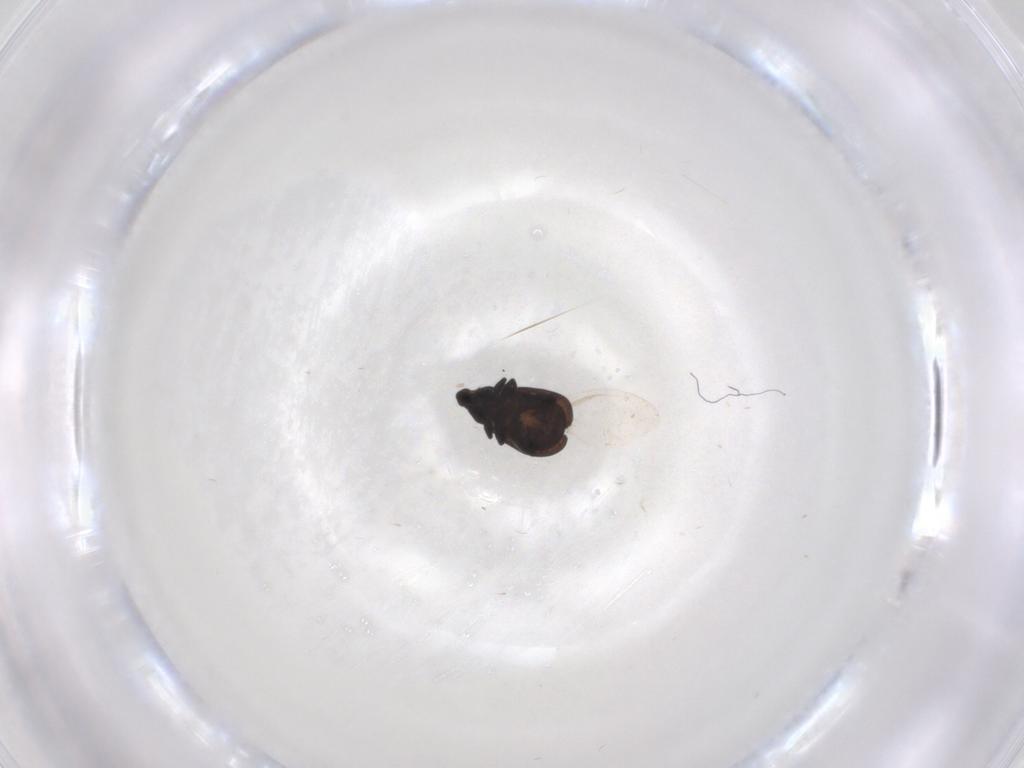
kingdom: Animalia
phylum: Arthropoda
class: Insecta
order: Coleoptera
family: Curculionidae
